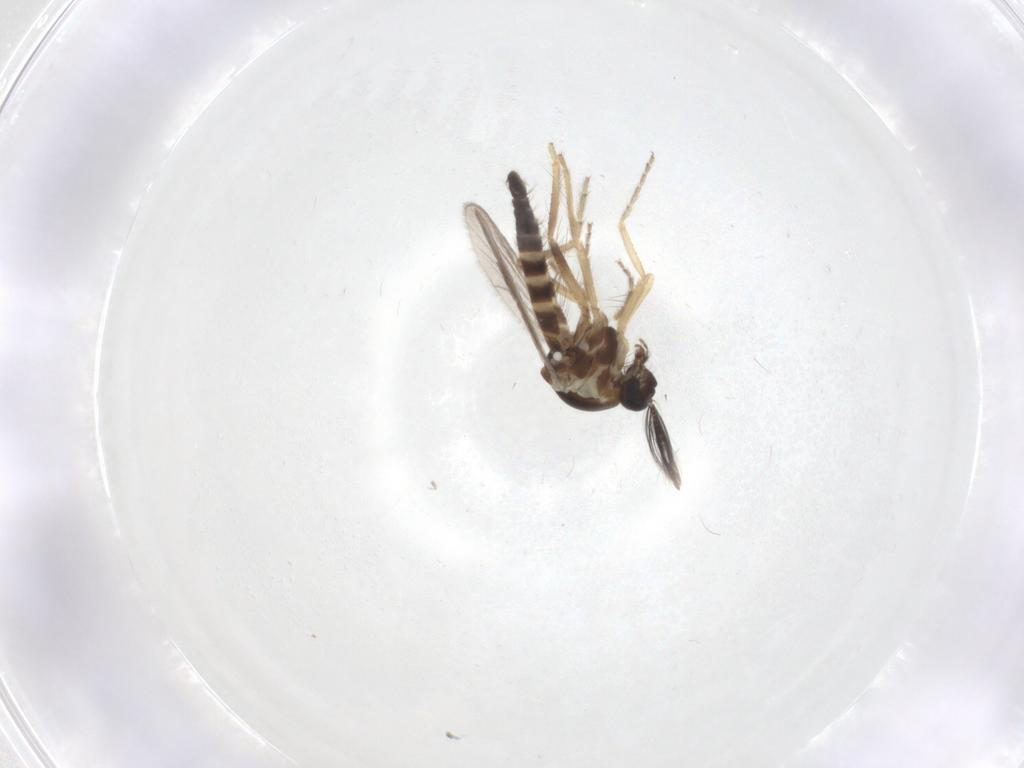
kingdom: Animalia
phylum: Arthropoda
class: Insecta
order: Diptera
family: Ceratopogonidae
